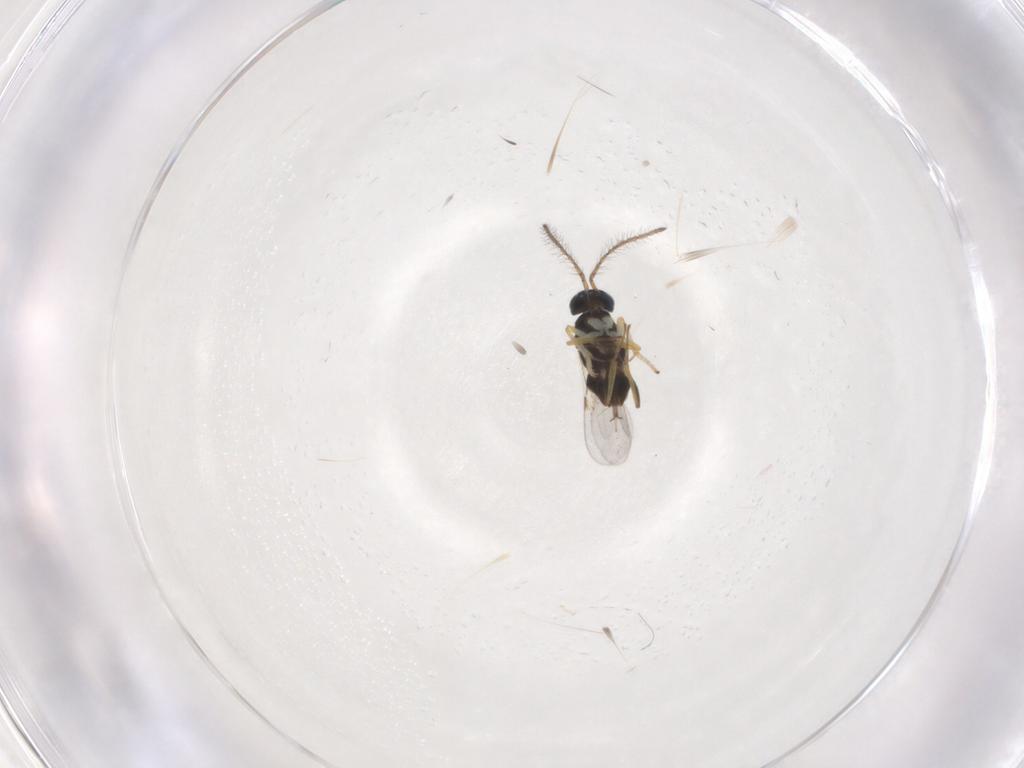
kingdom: Animalia
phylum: Arthropoda
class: Insecta
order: Hymenoptera
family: Encyrtidae
